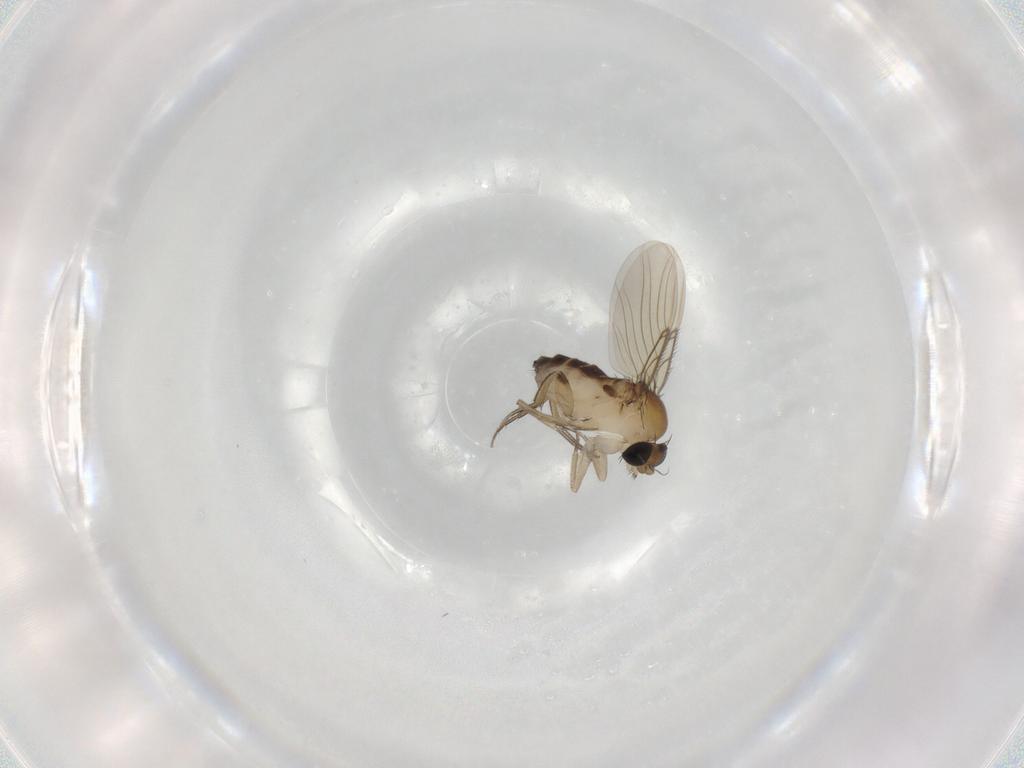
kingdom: Animalia
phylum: Arthropoda
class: Insecta
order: Diptera
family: Phoridae
